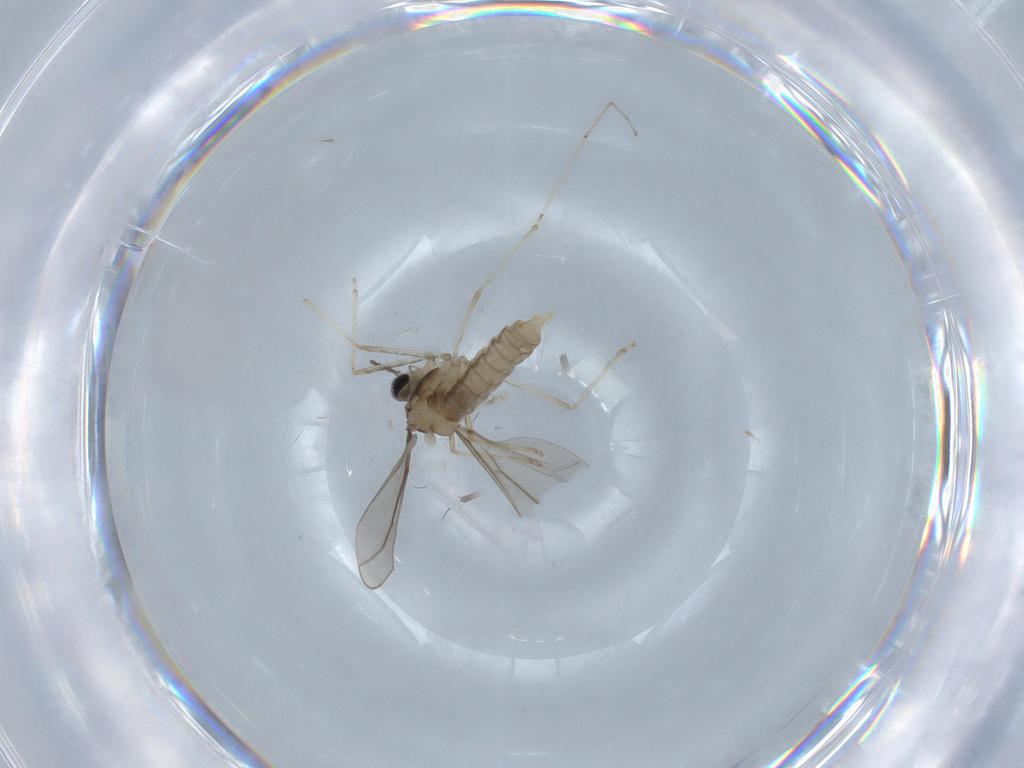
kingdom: Animalia
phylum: Arthropoda
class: Insecta
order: Diptera
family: Cecidomyiidae
